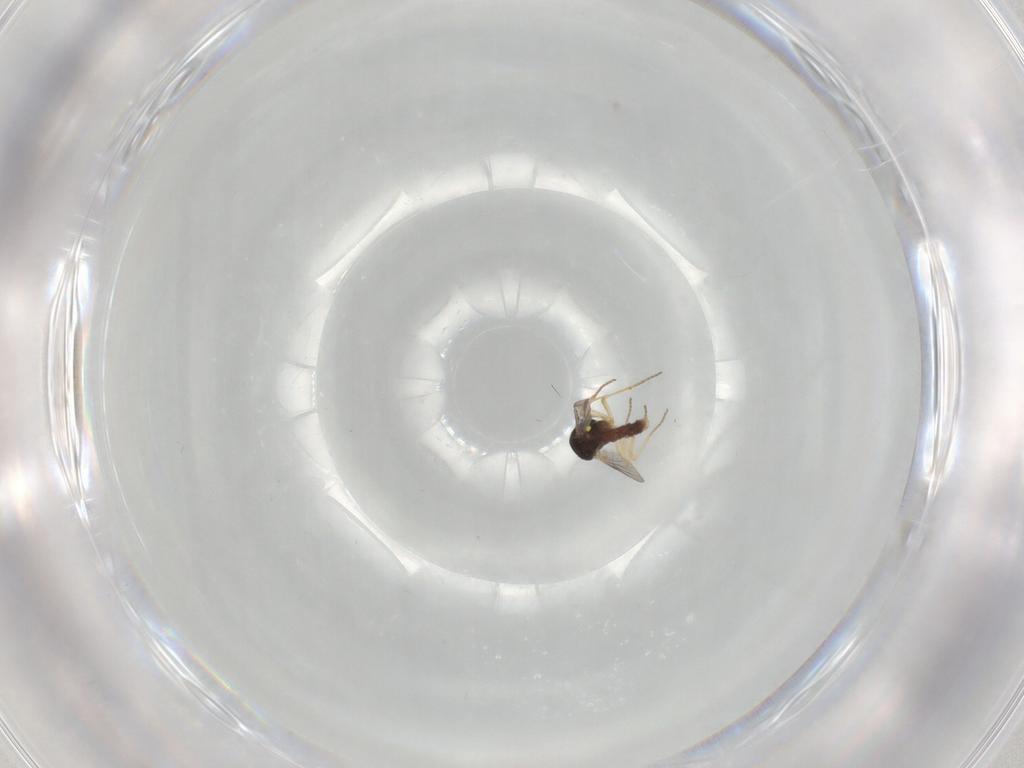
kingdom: Animalia
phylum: Arthropoda
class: Insecta
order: Diptera
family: Ceratopogonidae
